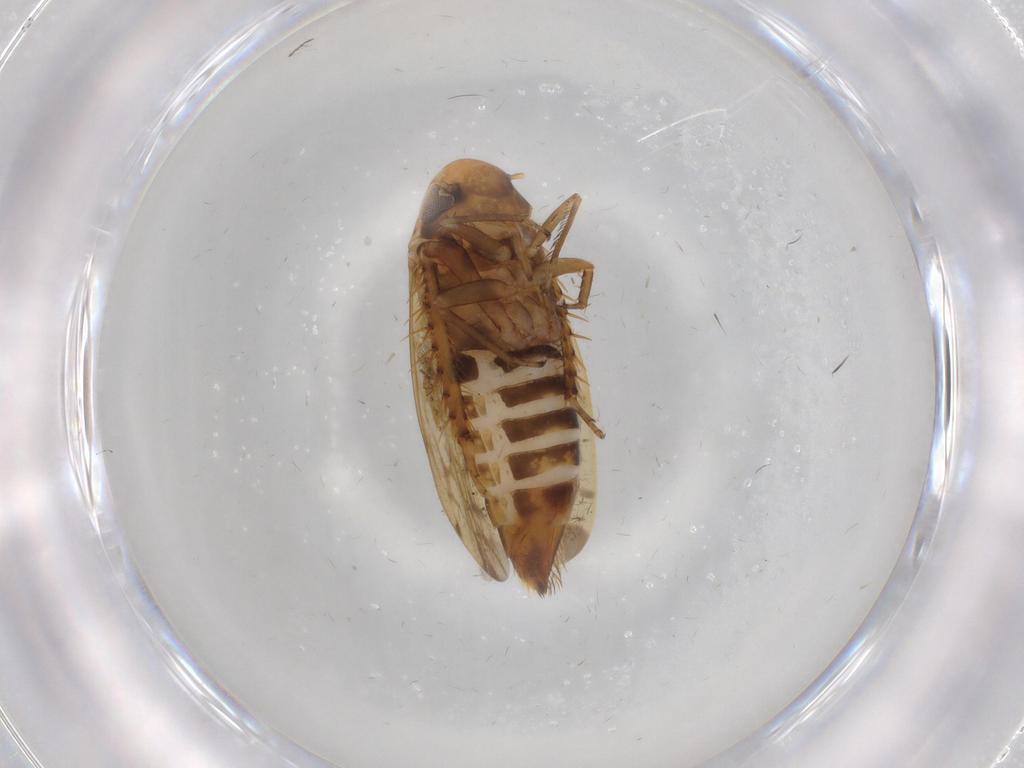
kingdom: Animalia
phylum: Arthropoda
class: Insecta
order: Hemiptera
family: Cicadellidae
